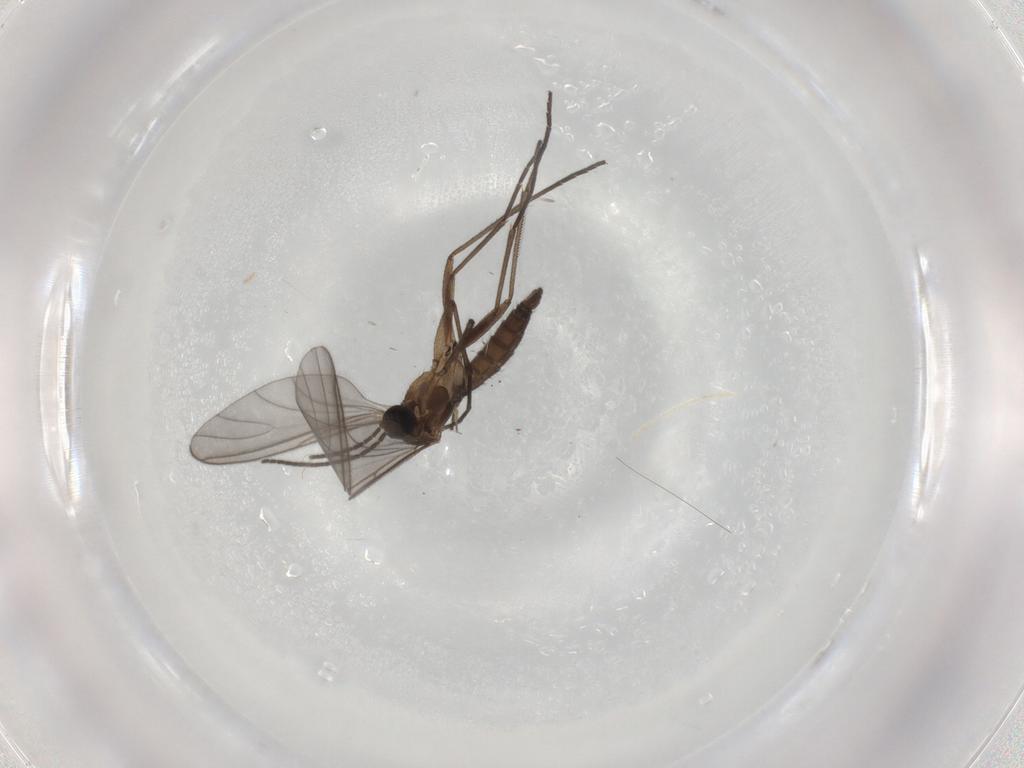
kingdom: Animalia
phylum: Arthropoda
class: Insecta
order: Diptera
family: Sciaridae
